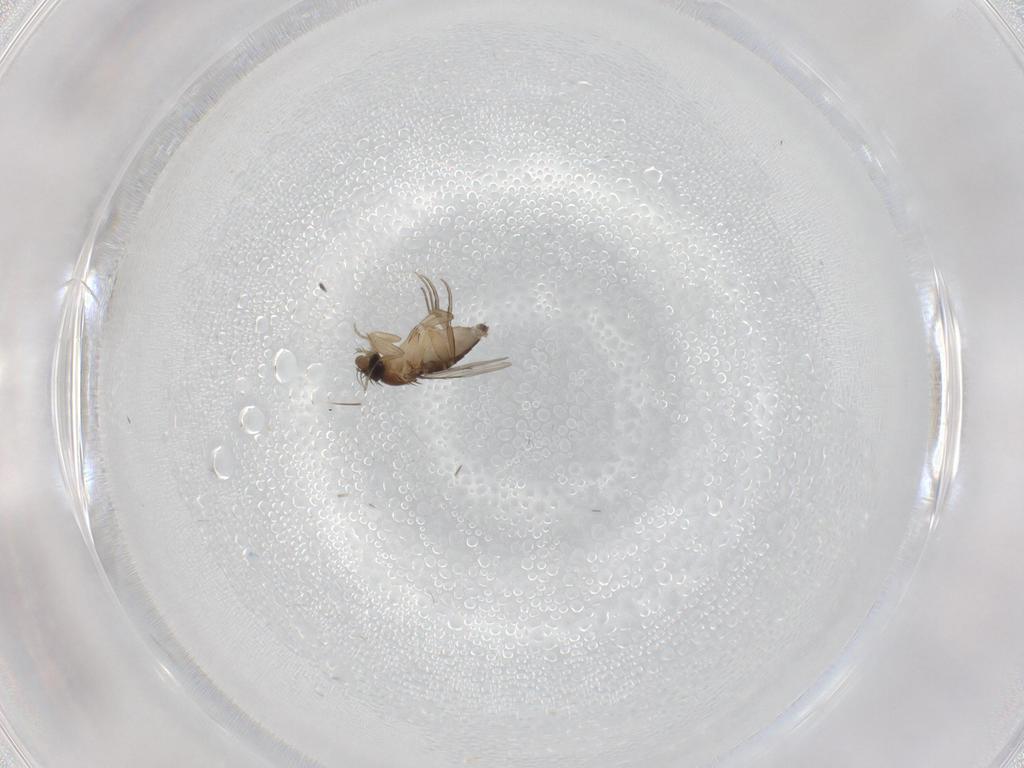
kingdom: Animalia
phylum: Arthropoda
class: Insecta
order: Diptera
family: Phoridae
